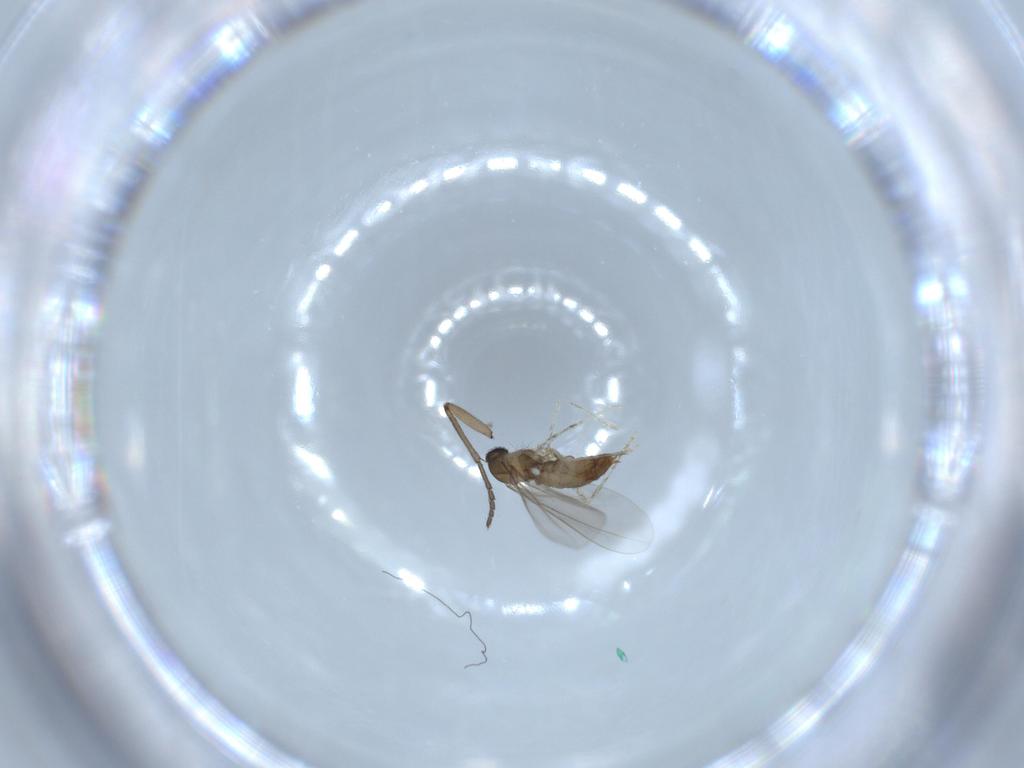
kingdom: Animalia
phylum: Arthropoda
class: Insecta
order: Diptera
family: Sciaridae
